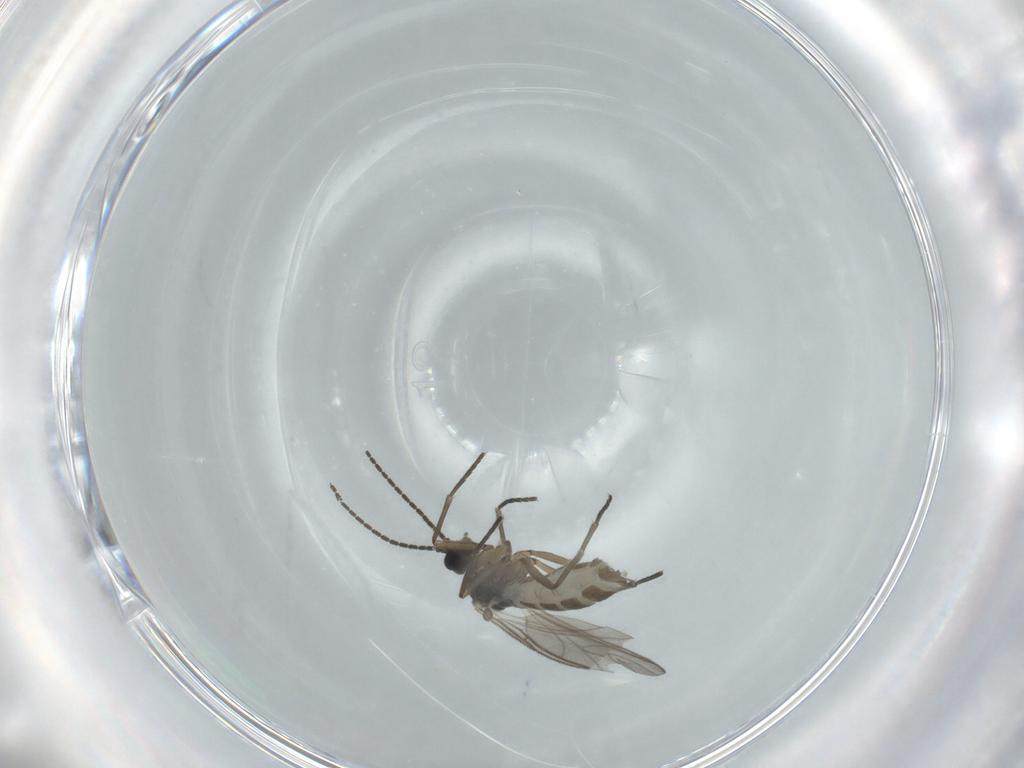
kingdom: Animalia
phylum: Arthropoda
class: Insecta
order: Diptera
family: Sciaridae
